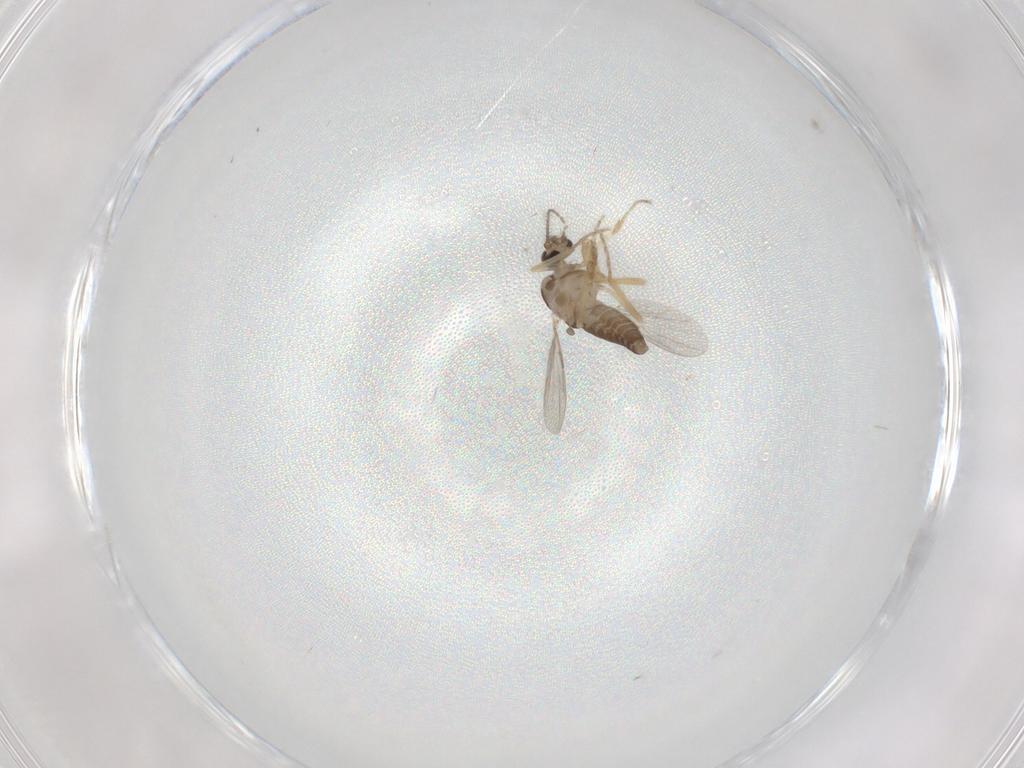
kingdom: Animalia
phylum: Arthropoda
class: Insecta
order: Diptera
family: Ceratopogonidae
